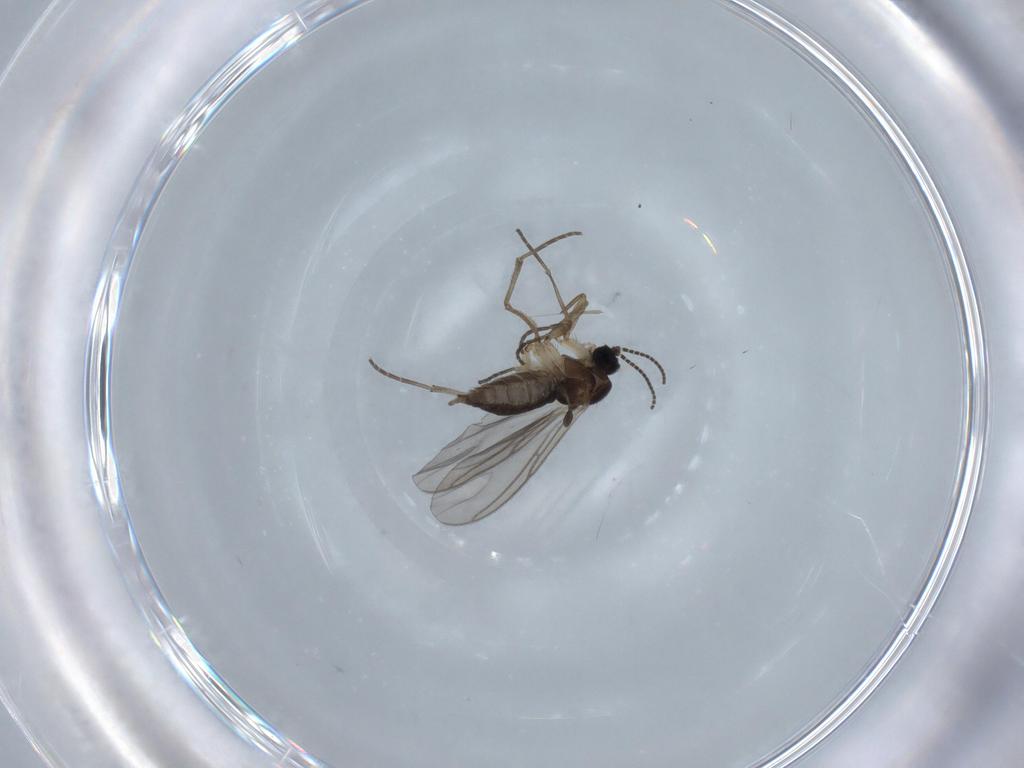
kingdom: Animalia
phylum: Arthropoda
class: Insecta
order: Diptera
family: Sciaridae
